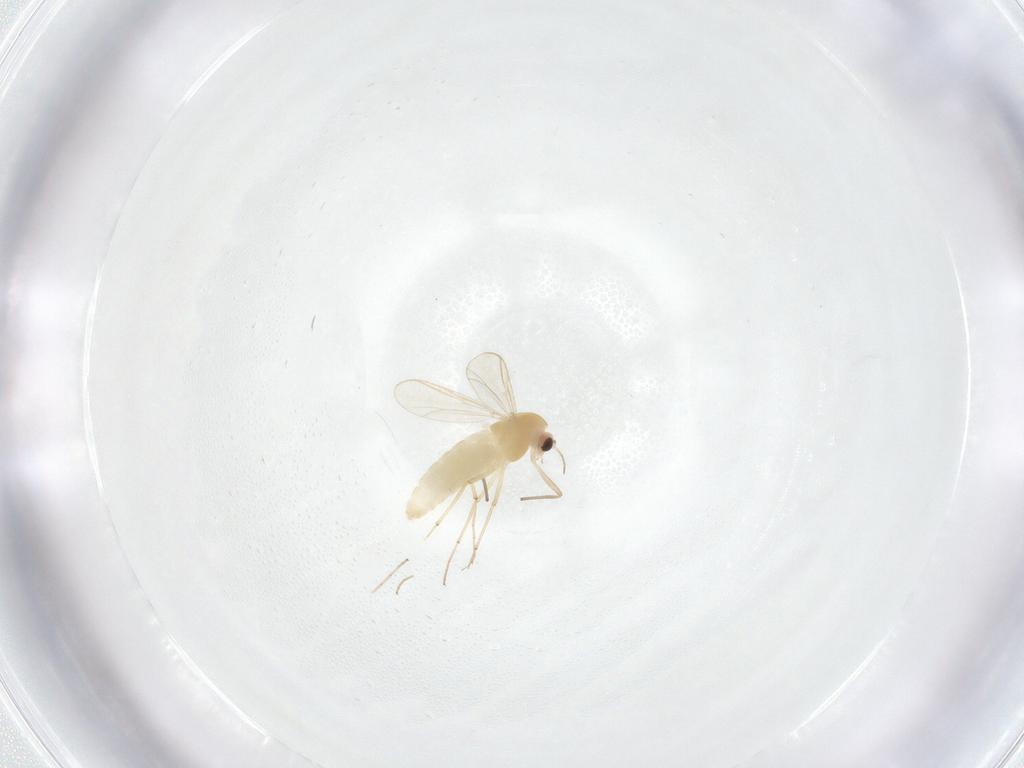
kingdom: Animalia
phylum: Arthropoda
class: Insecta
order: Diptera
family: Chironomidae
